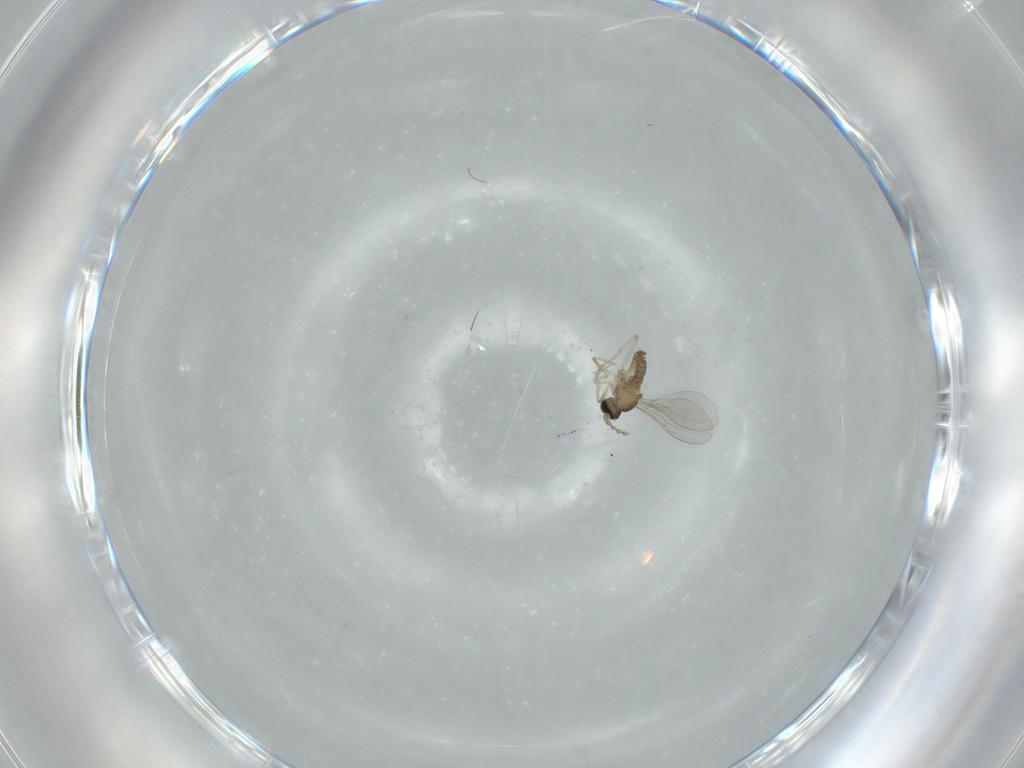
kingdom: Animalia
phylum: Arthropoda
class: Insecta
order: Diptera
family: Cecidomyiidae
